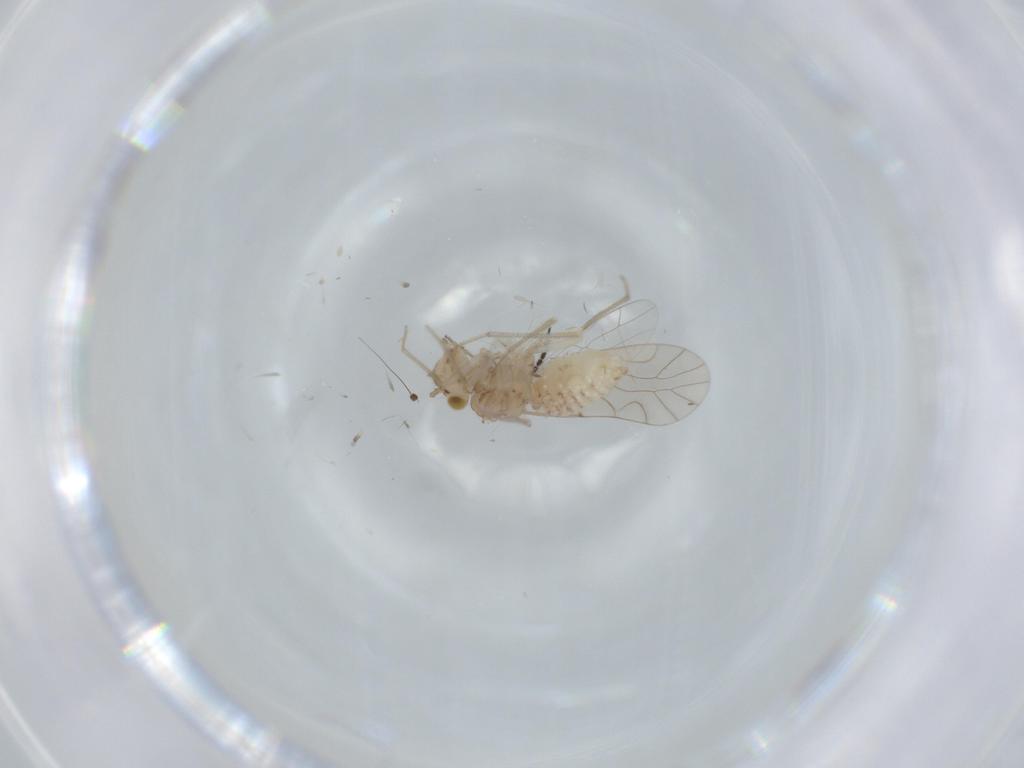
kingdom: Animalia
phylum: Arthropoda
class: Insecta
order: Psocodea
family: Lachesillidae
